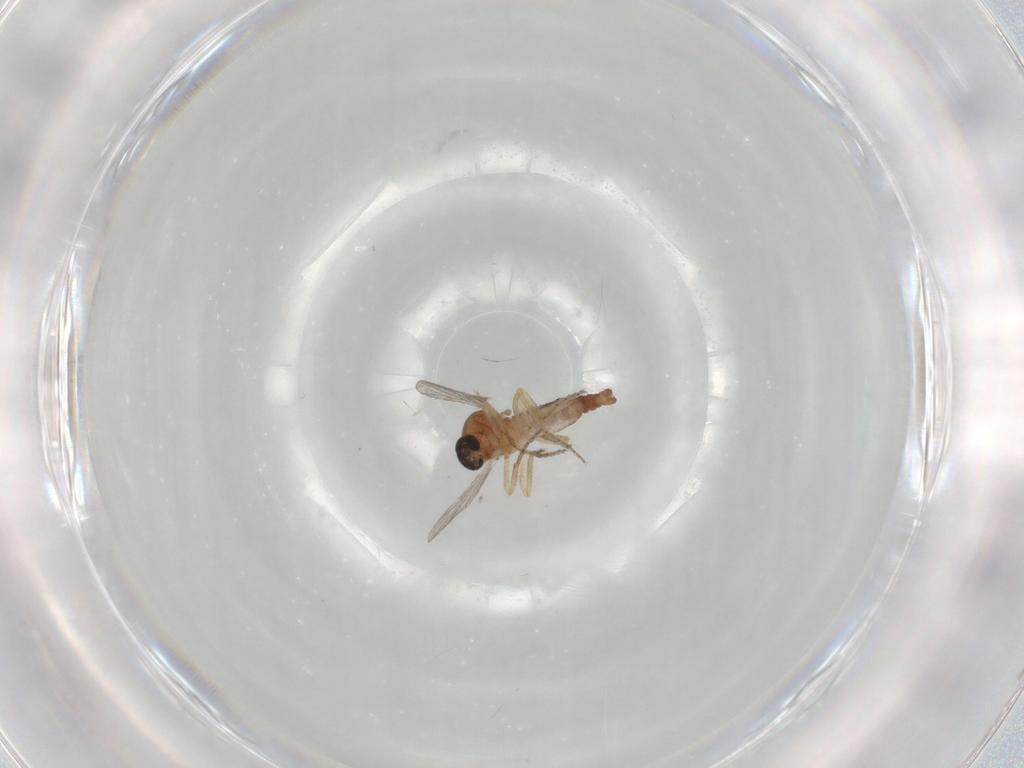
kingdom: Animalia
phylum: Arthropoda
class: Insecta
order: Diptera
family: Ceratopogonidae
